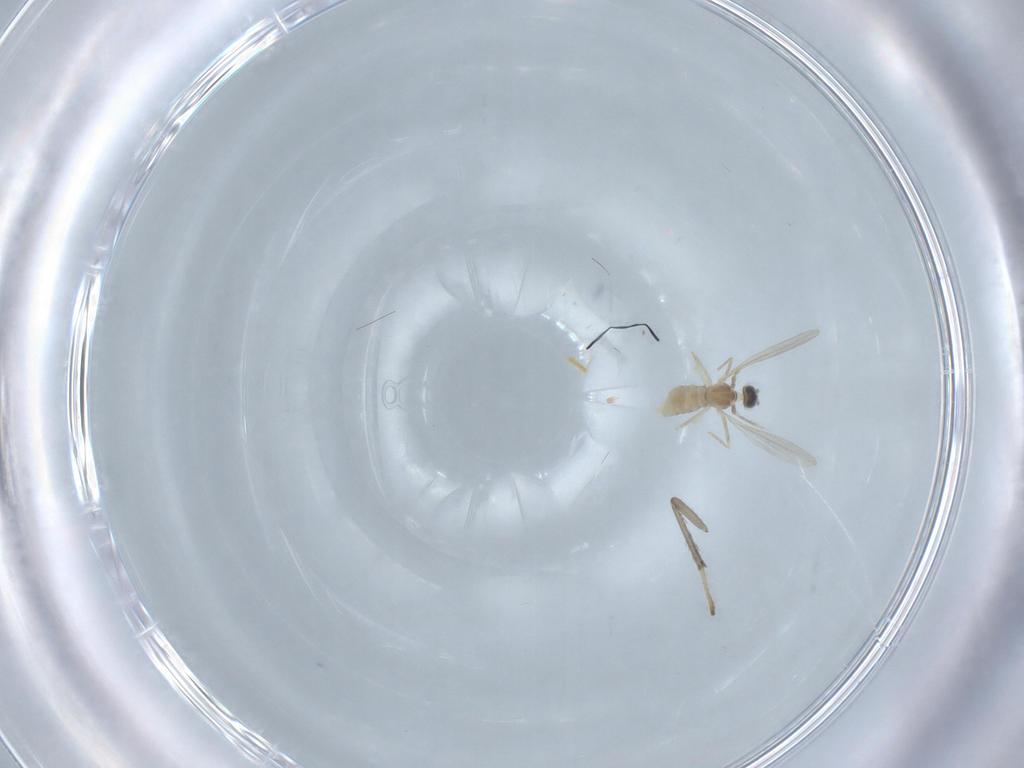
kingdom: Animalia
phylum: Arthropoda
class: Insecta
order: Diptera
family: Cecidomyiidae
